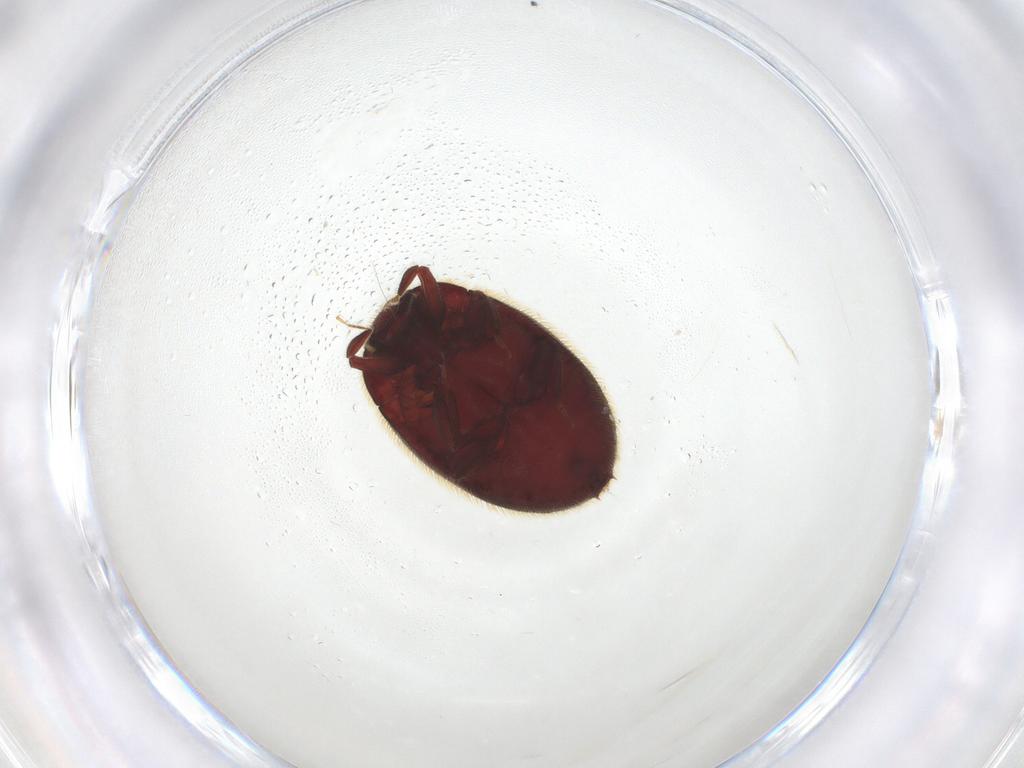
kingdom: Animalia
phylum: Arthropoda
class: Insecta
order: Coleoptera
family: Limnichidae
